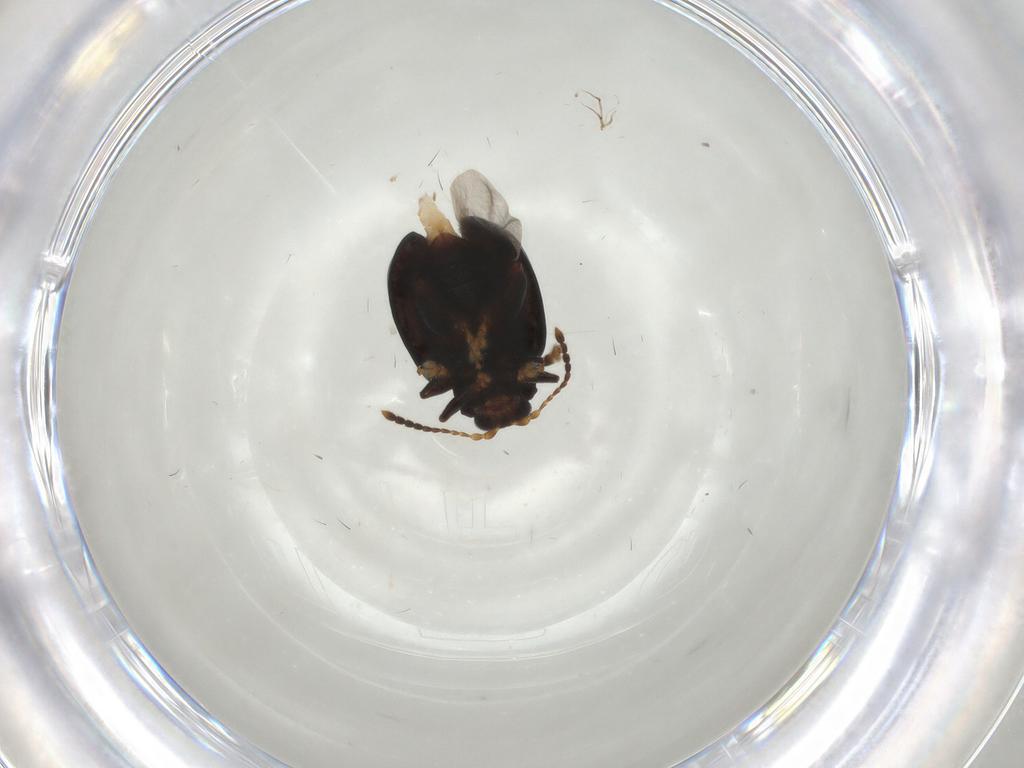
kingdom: Animalia
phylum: Arthropoda
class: Insecta
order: Coleoptera
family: Chrysomelidae
